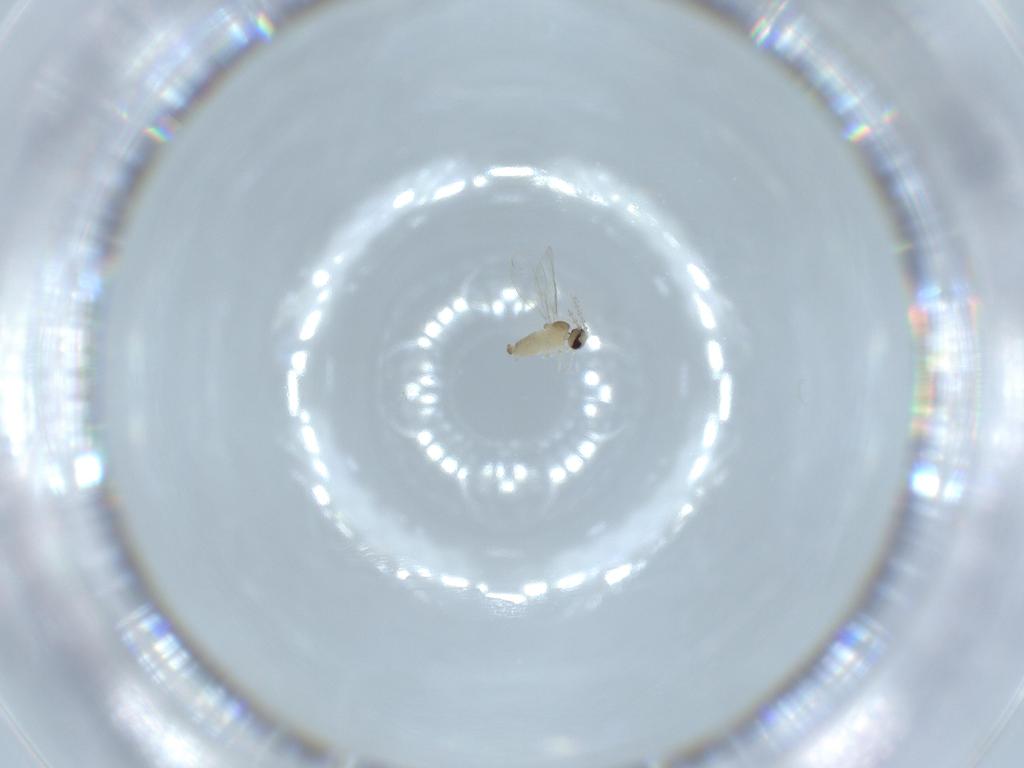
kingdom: Animalia
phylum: Arthropoda
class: Insecta
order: Diptera
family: Cecidomyiidae
